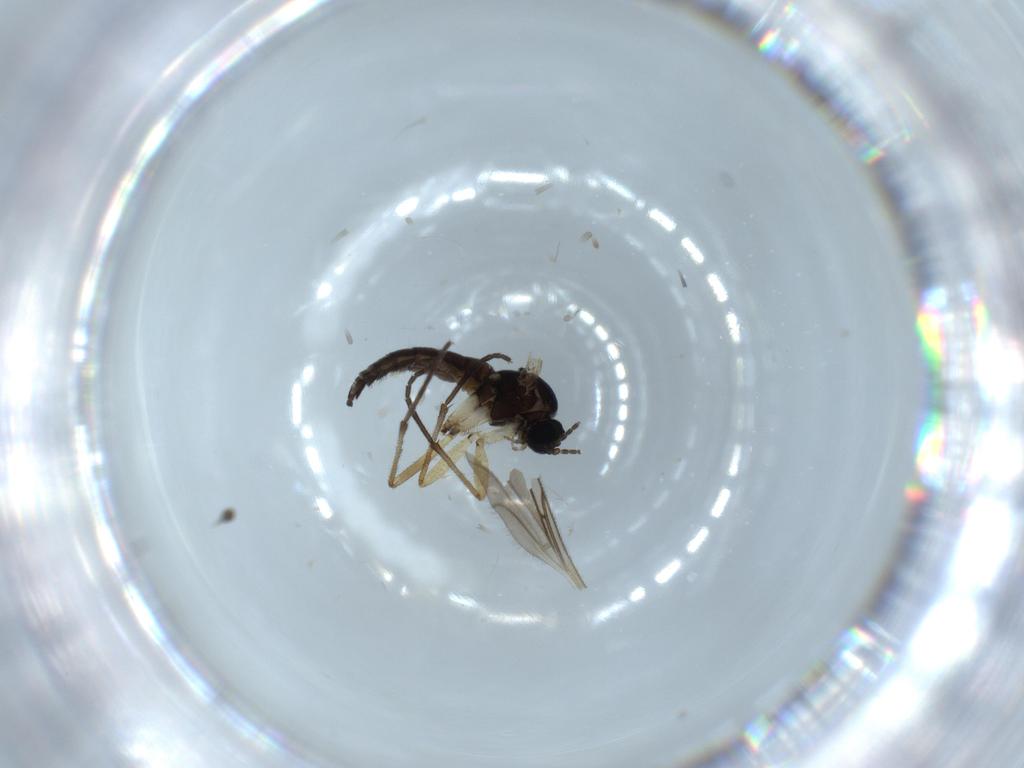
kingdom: Animalia
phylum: Arthropoda
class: Insecta
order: Diptera
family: Sciaridae
